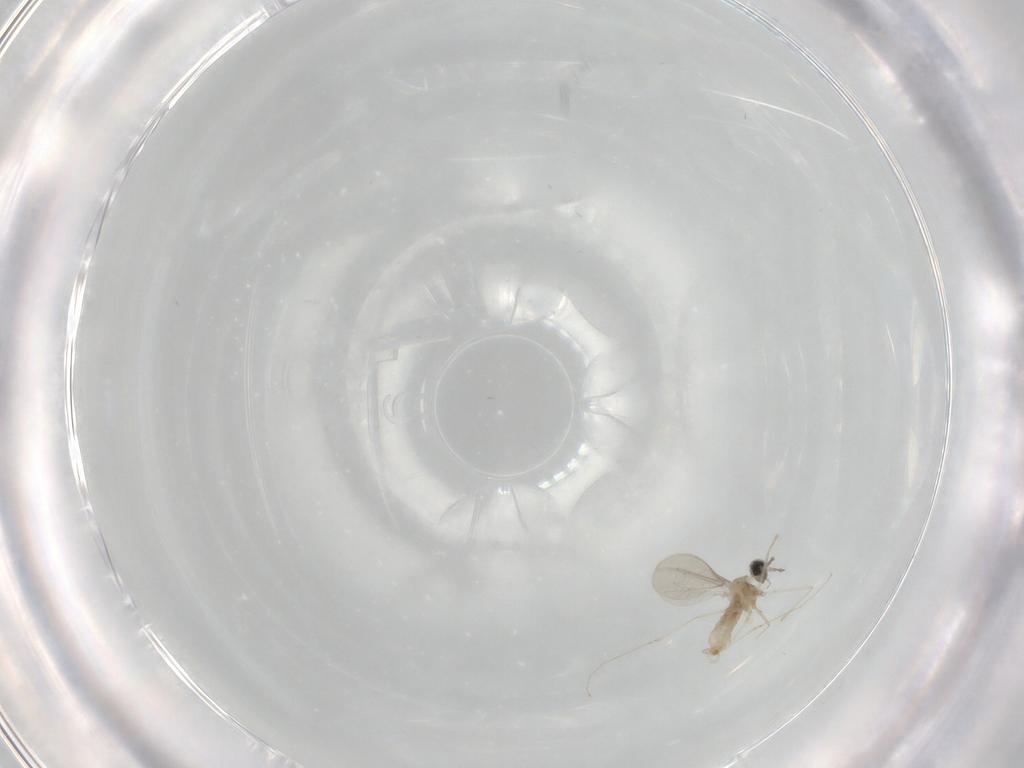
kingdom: Animalia
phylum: Arthropoda
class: Insecta
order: Diptera
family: Cecidomyiidae
